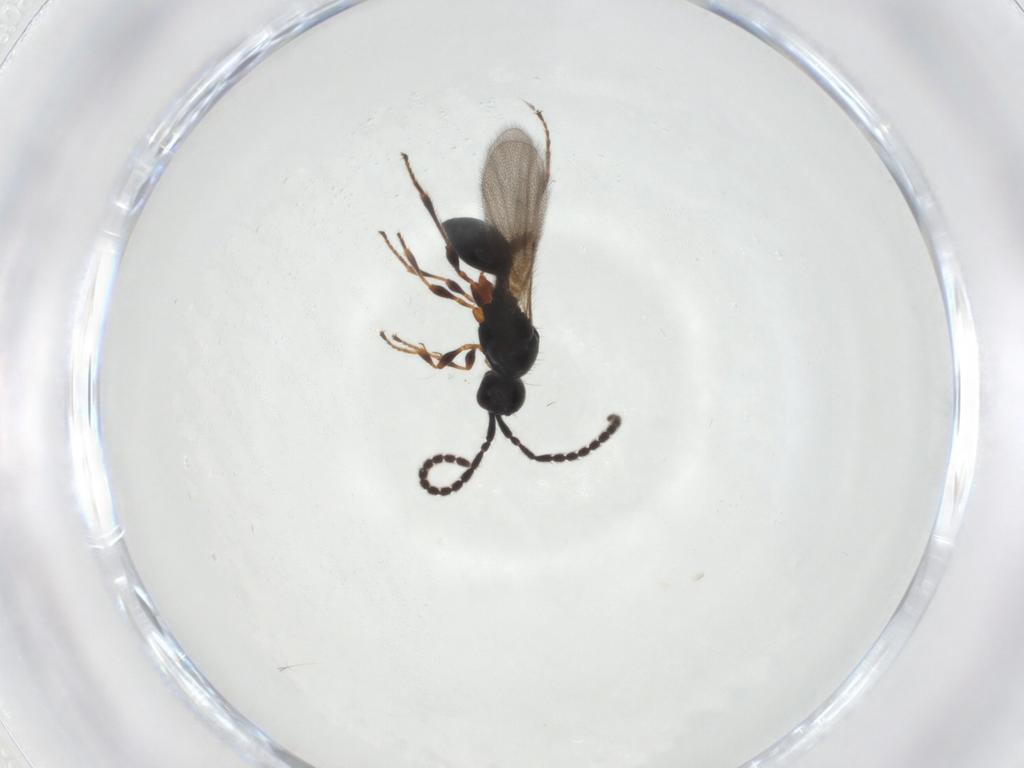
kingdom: Animalia
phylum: Arthropoda
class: Insecta
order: Hymenoptera
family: Diapriidae
